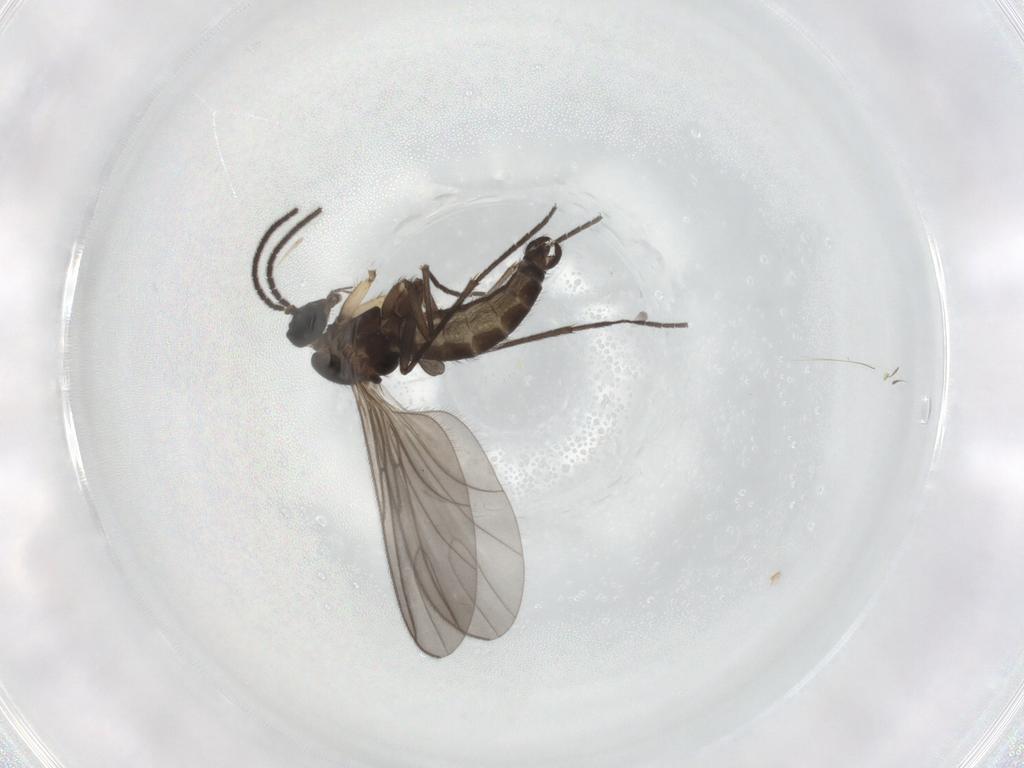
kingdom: Animalia
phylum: Arthropoda
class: Insecta
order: Diptera
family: Sciaridae
